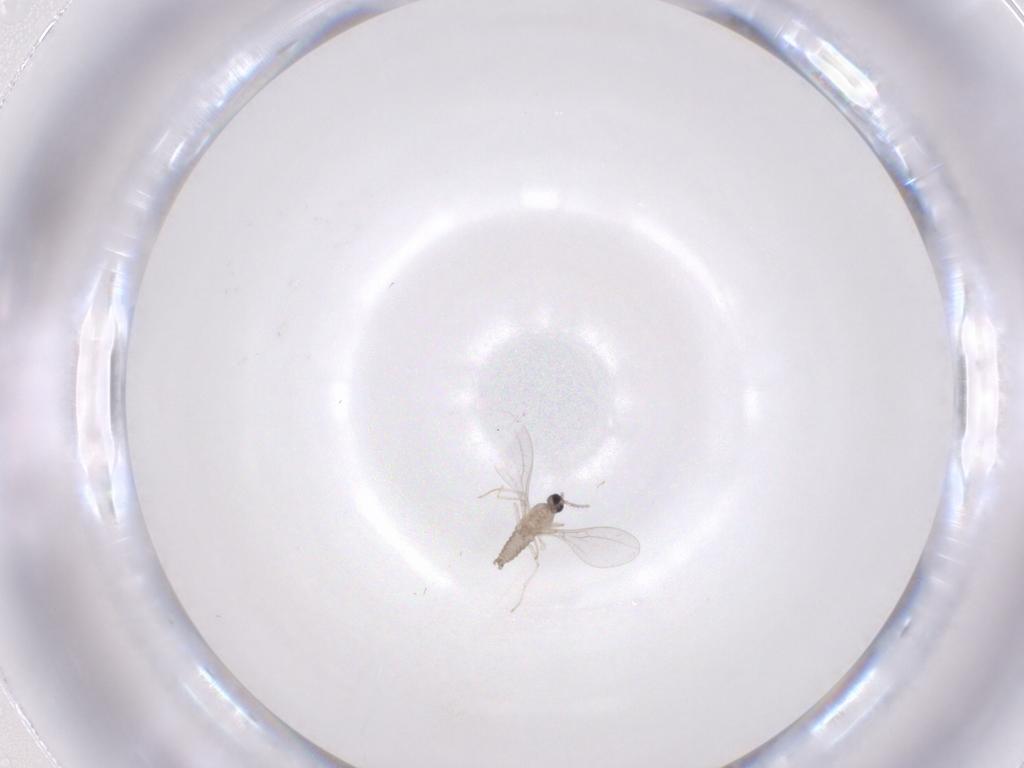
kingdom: Animalia
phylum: Arthropoda
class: Insecta
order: Diptera
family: Cecidomyiidae
